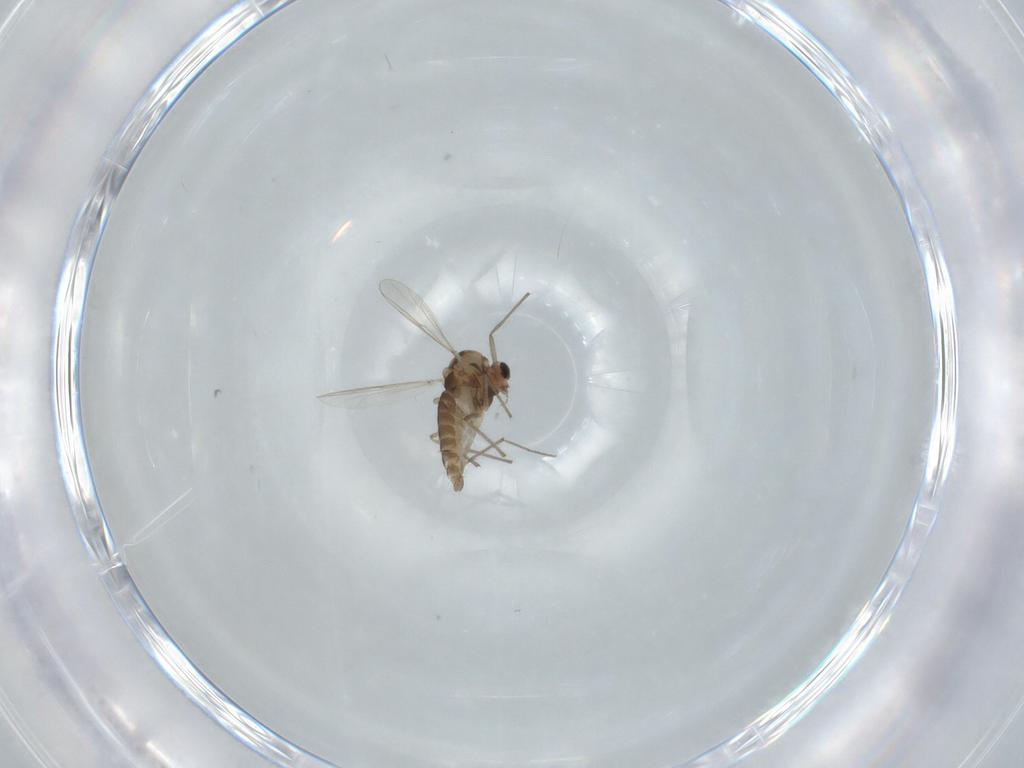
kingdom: Animalia
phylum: Arthropoda
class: Insecta
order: Diptera
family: Chironomidae
